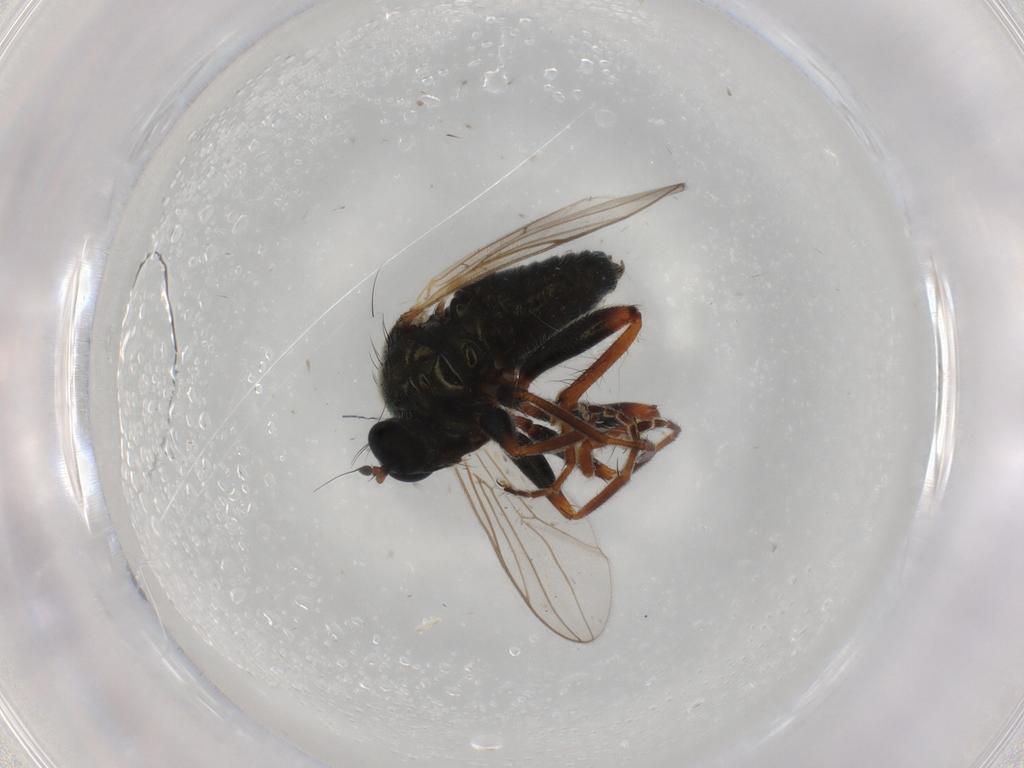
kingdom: Animalia
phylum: Arthropoda
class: Insecta
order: Diptera
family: Hybotidae
